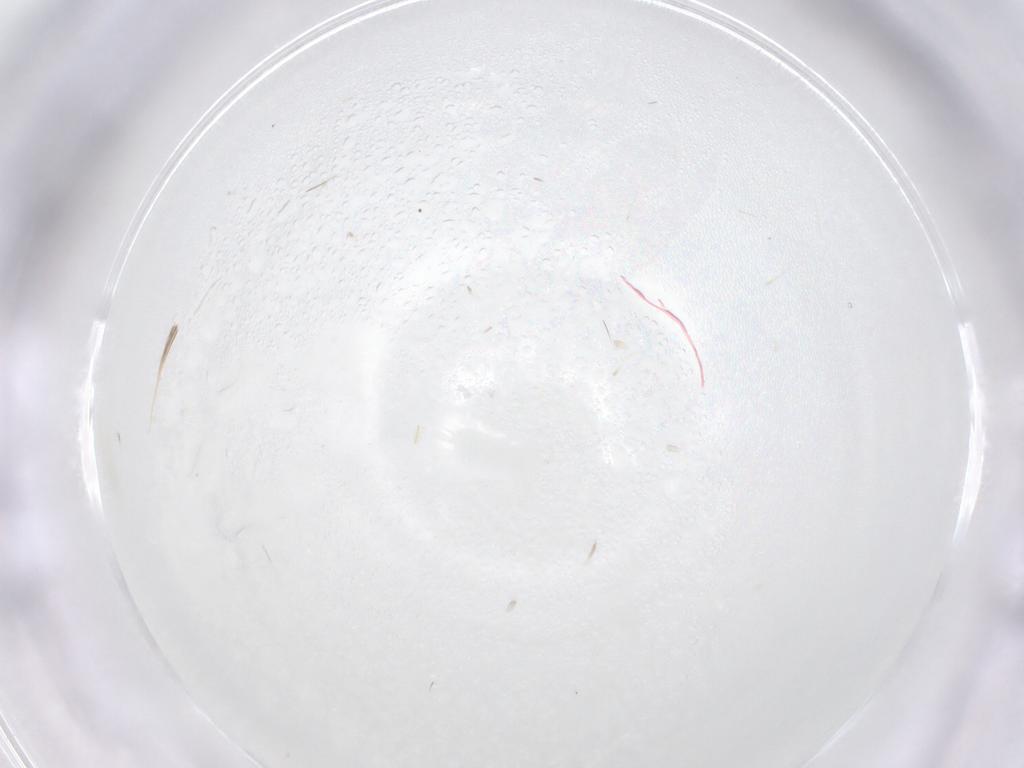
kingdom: Animalia
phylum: Arthropoda
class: Insecta
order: Diptera
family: Ceratopogonidae
